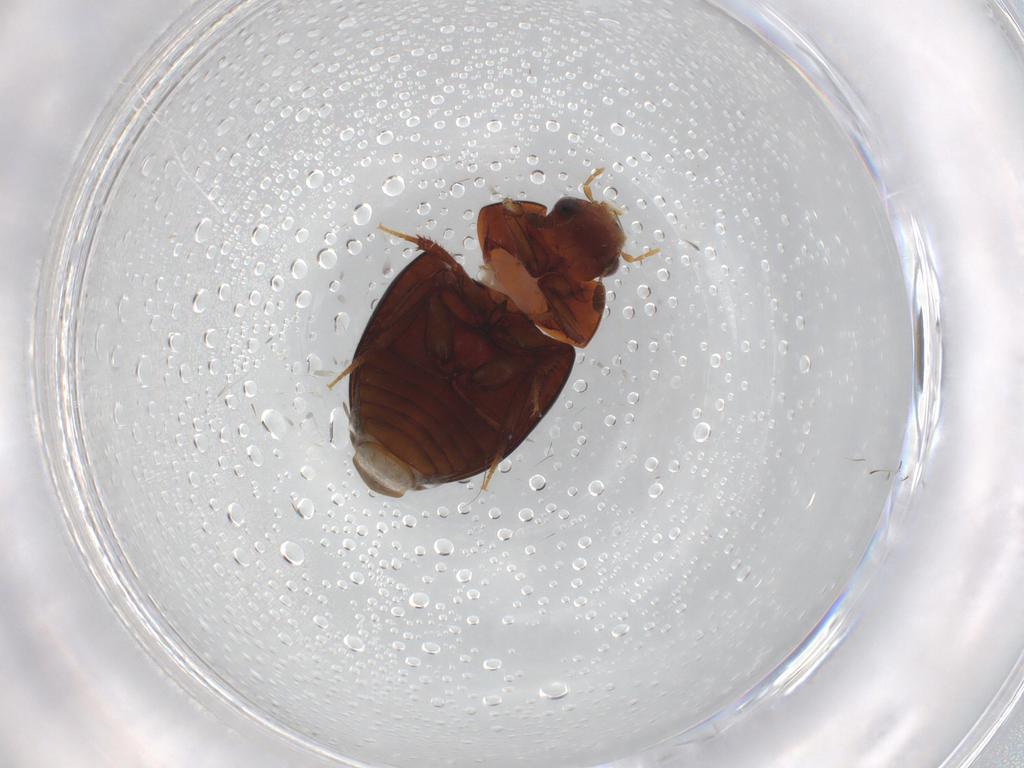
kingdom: Animalia
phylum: Arthropoda
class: Insecta
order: Coleoptera
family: Hydrophilidae
